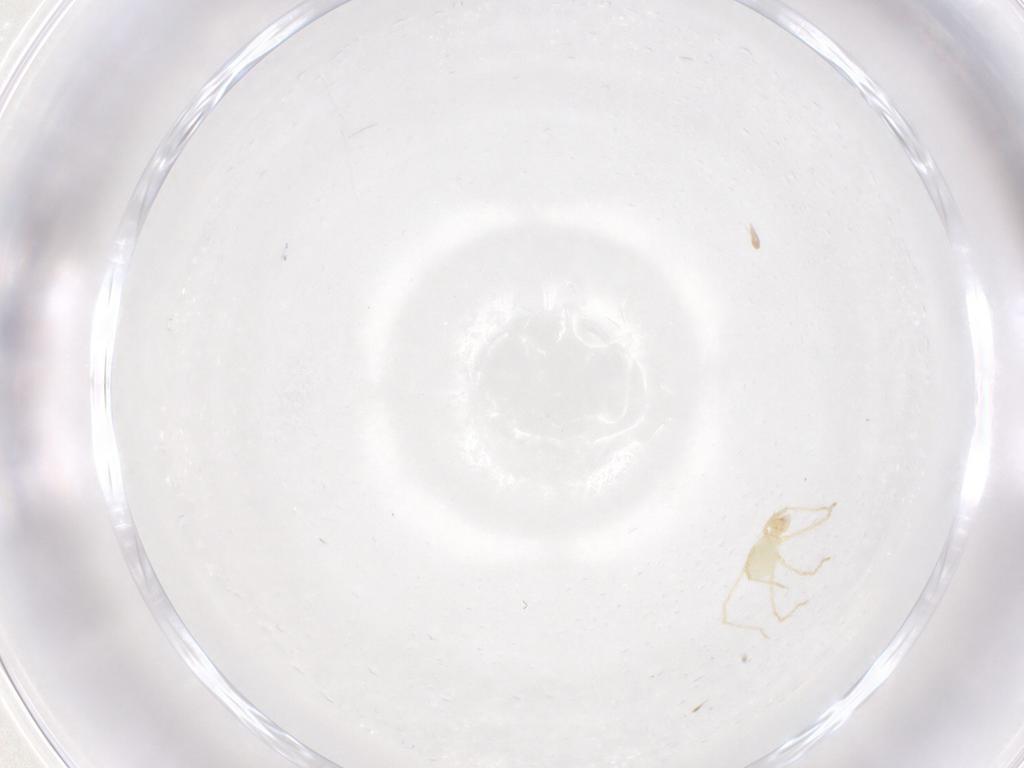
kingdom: Animalia
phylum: Arthropoda
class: Arachnida
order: Trombidiformes
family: Erythraeidae
